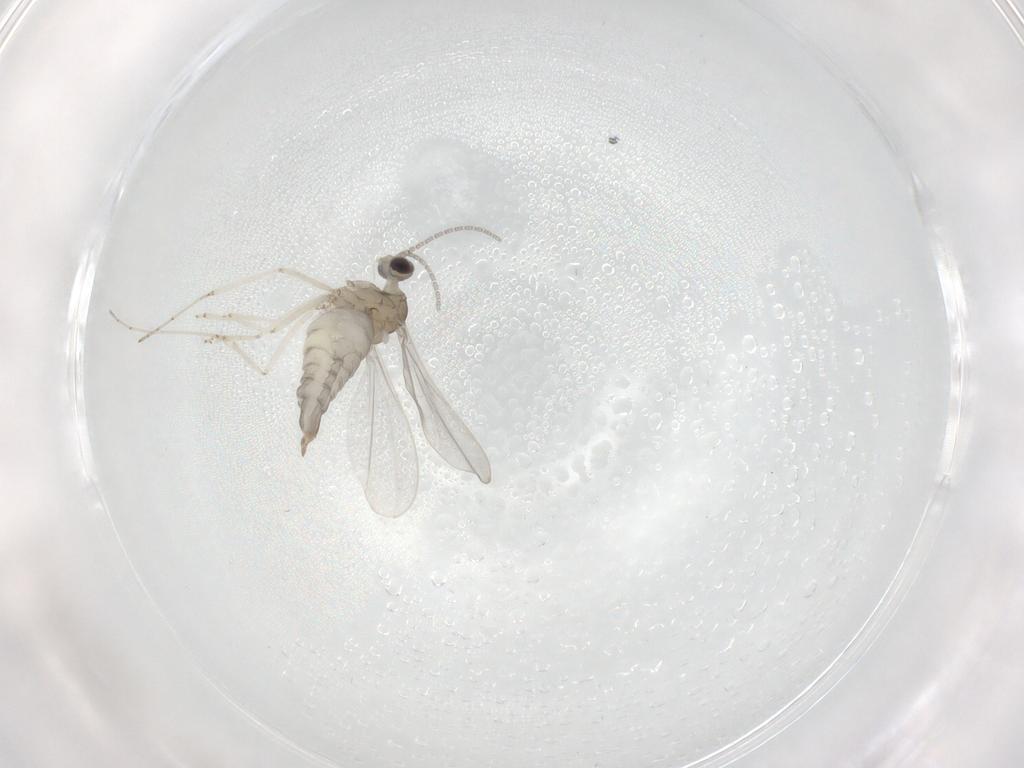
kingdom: Animalia
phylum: Arthropoda
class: Insecta
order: Diptera
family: Cecidomyiidae
